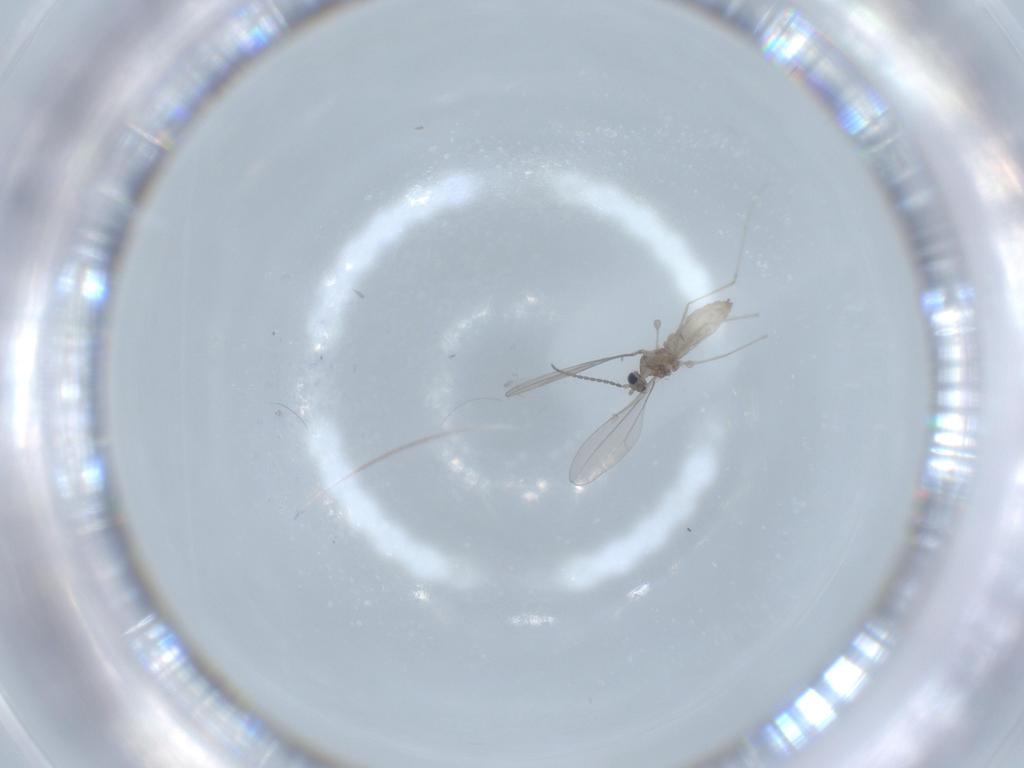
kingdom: Animalia
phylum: Arthropoda
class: Insecta
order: Diptera
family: Cecidomyiidae
